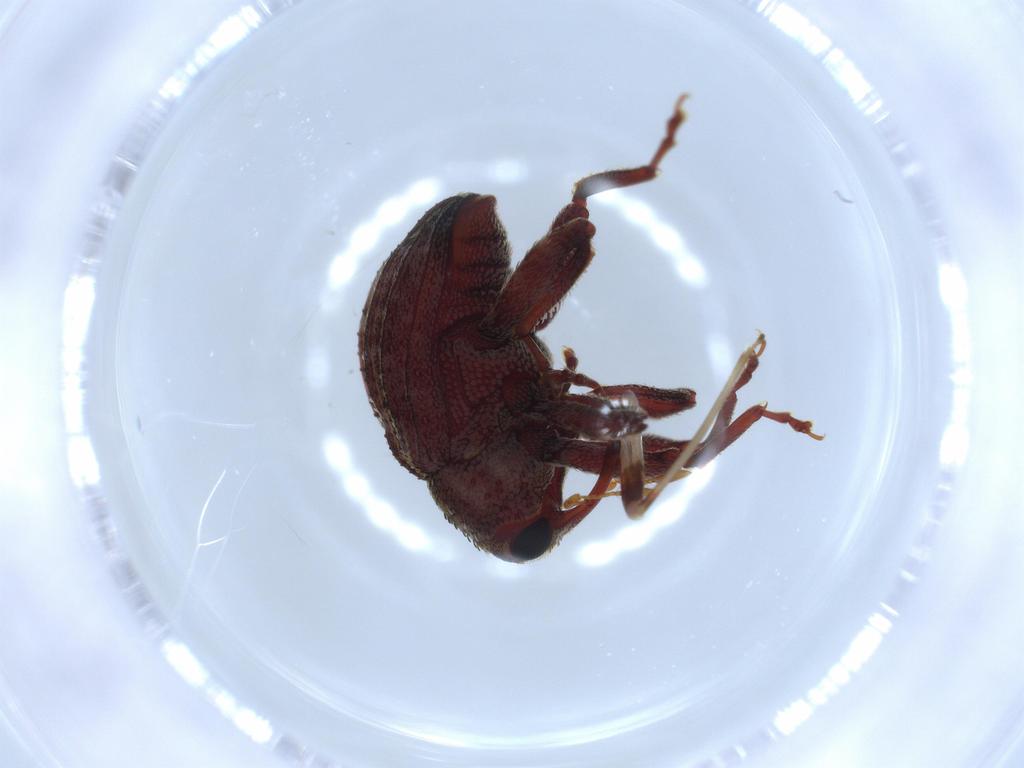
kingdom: Animalia
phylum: Arthropoda
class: Insecta
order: Coleoptera
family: Curculionidae
